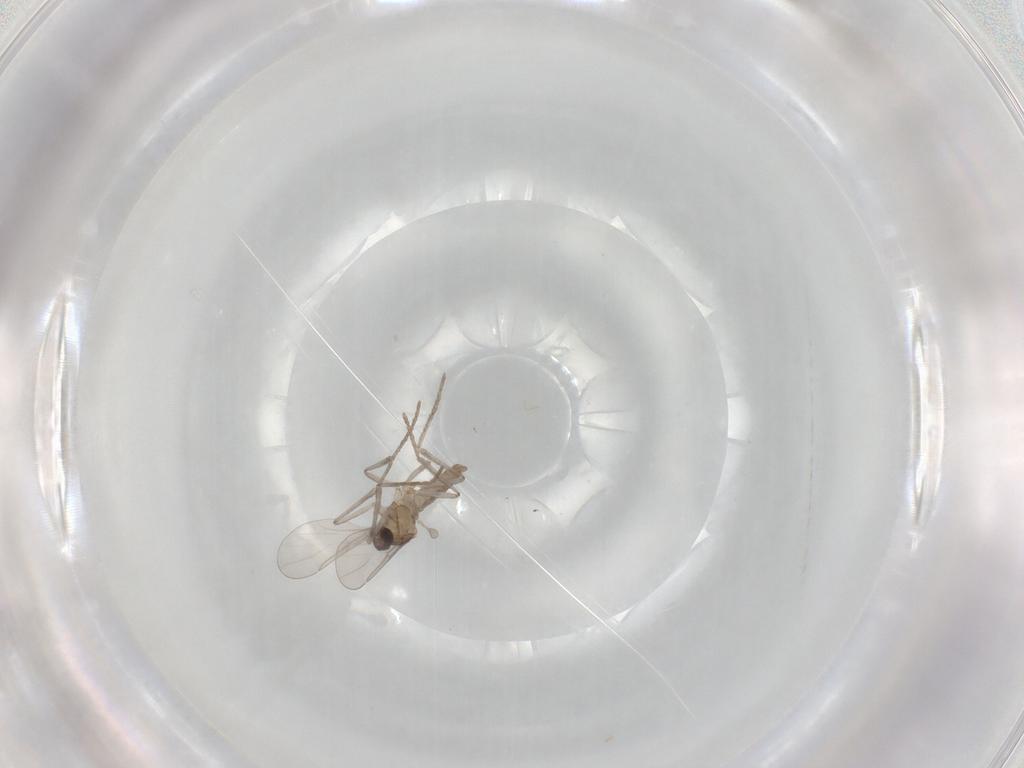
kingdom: Animalia
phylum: Arthropoda
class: Insecta
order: Diptera
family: Cecidomyiidae
